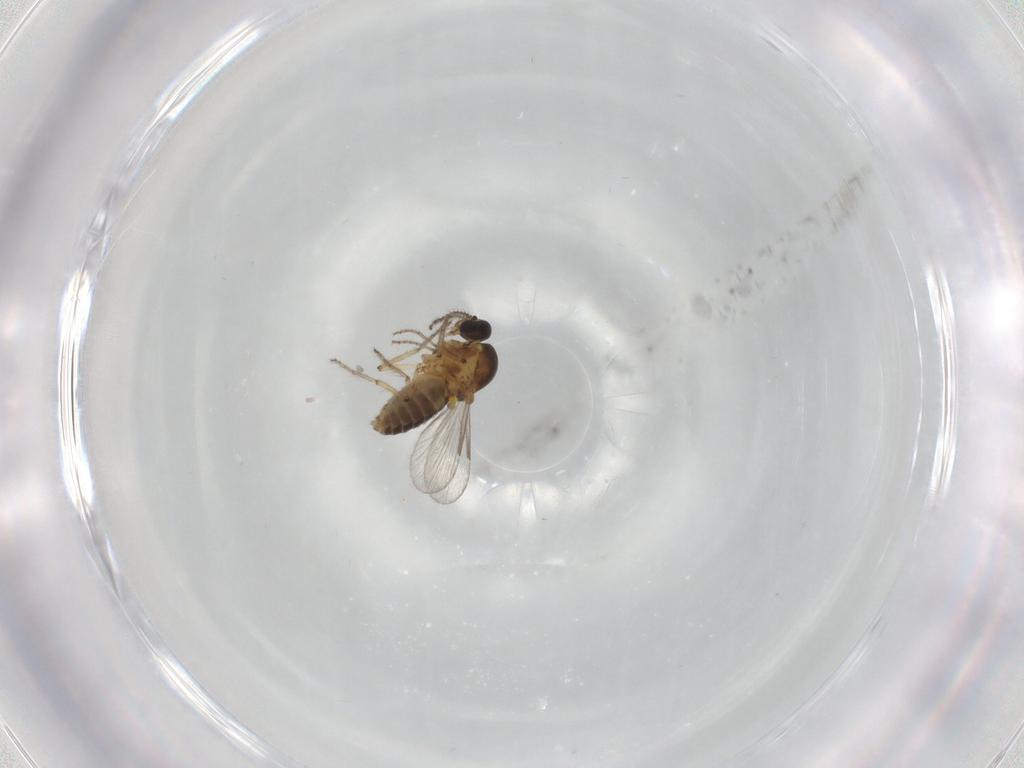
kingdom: Animalia
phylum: Arthropoda
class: Insecta
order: Diptera
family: Ceratopogonidae
